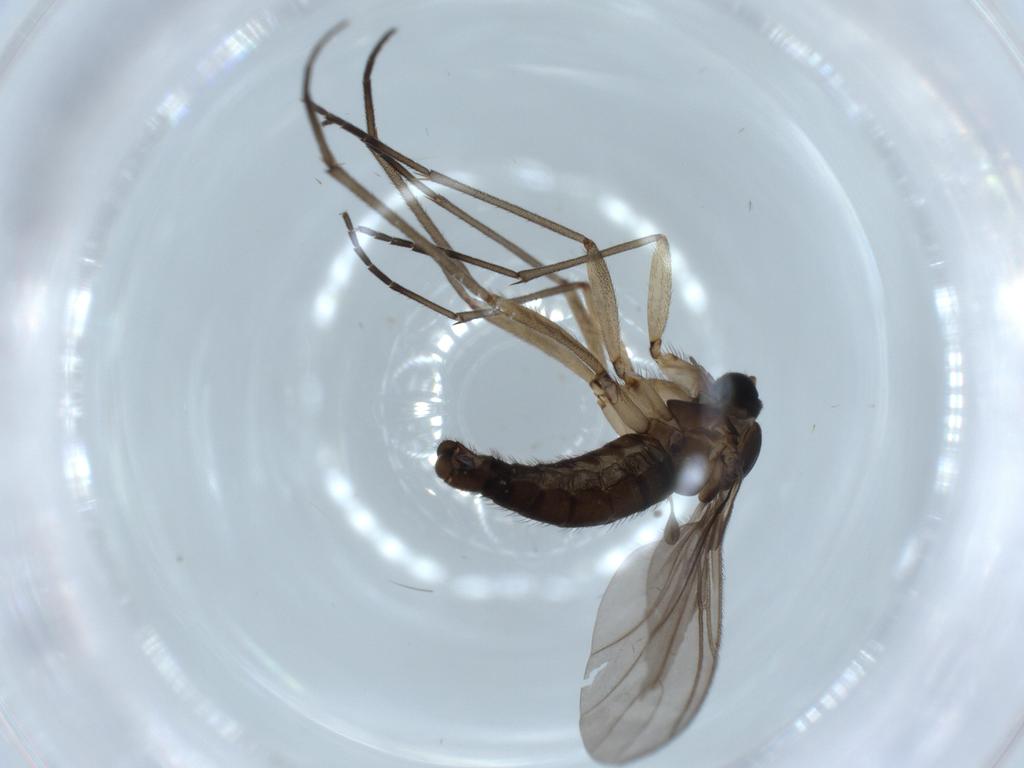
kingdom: Animalia
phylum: Arthropoda
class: Insecta
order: Diptera
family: Sciaridae
